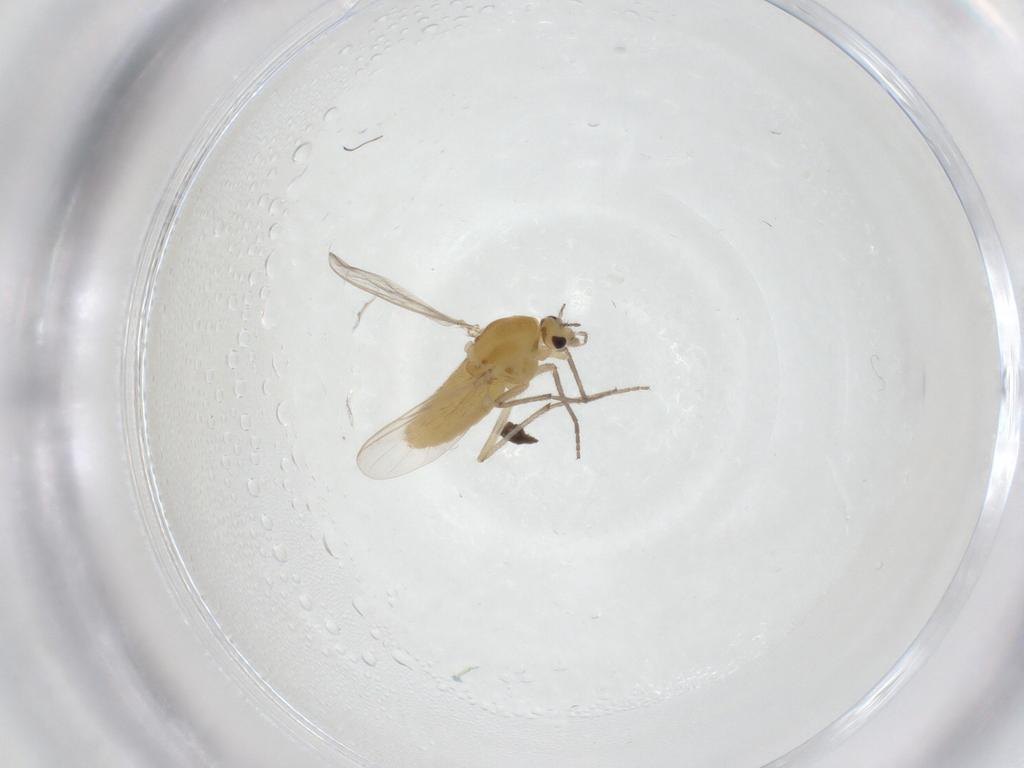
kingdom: Animalia
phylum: Arthropoda
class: Insecta
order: Diptera
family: Chironomidae
